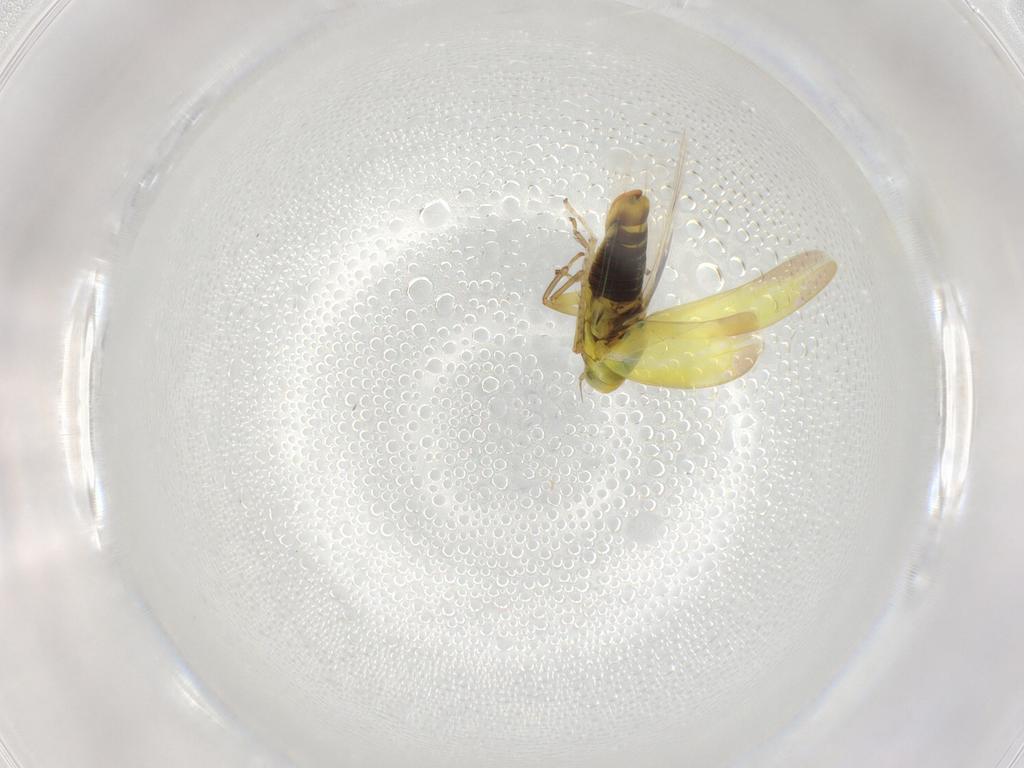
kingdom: Animalia
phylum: Arthropoda
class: Insecta
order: Hemiptera
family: Cicadellidae
